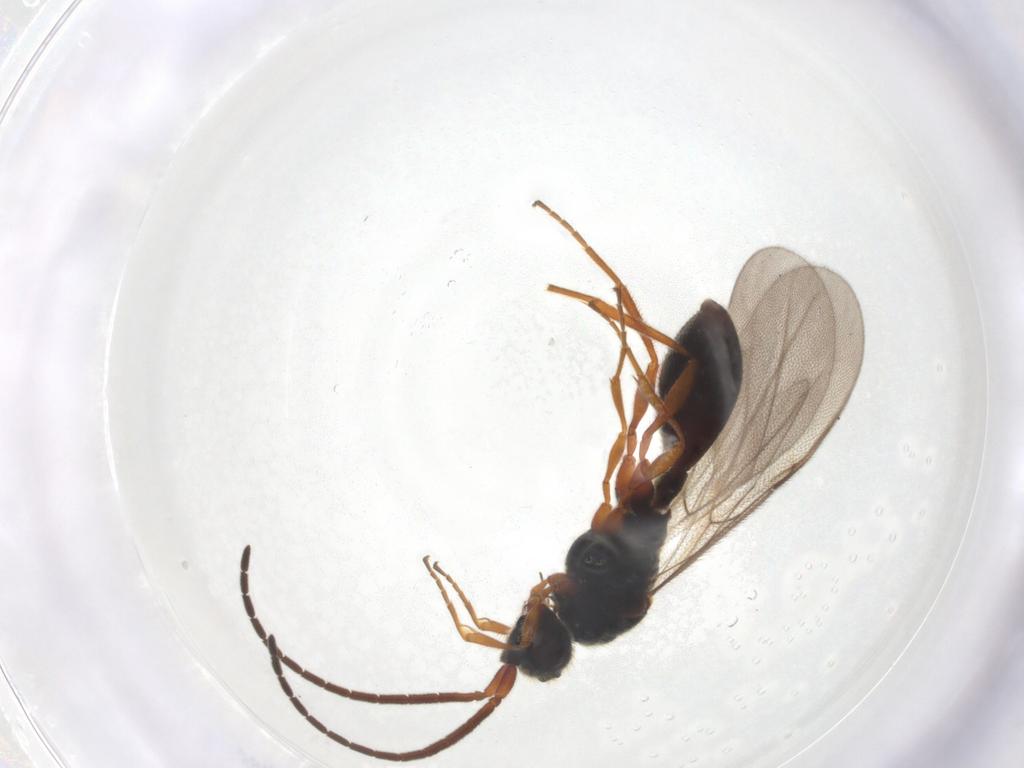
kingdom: Animalia
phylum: Arthropoda
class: Insecta
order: Hymenoptera
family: Diapriidae
